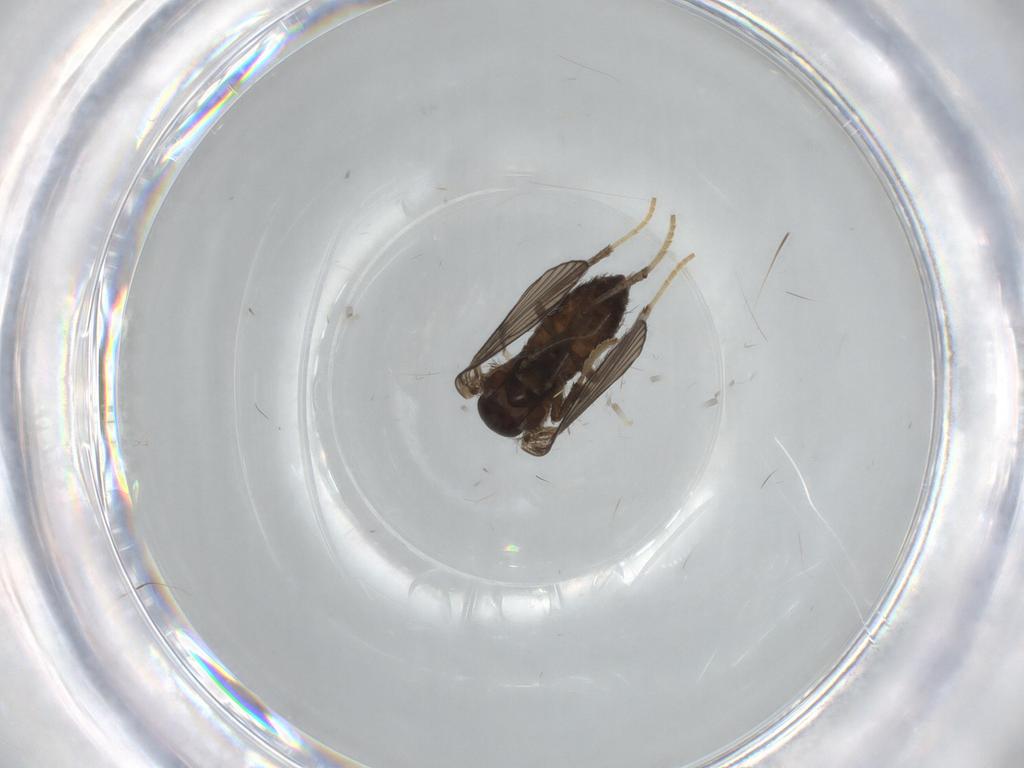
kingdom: Animalia
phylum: Arthropoda
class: Insecta
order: Diptera
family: Psychodidae
